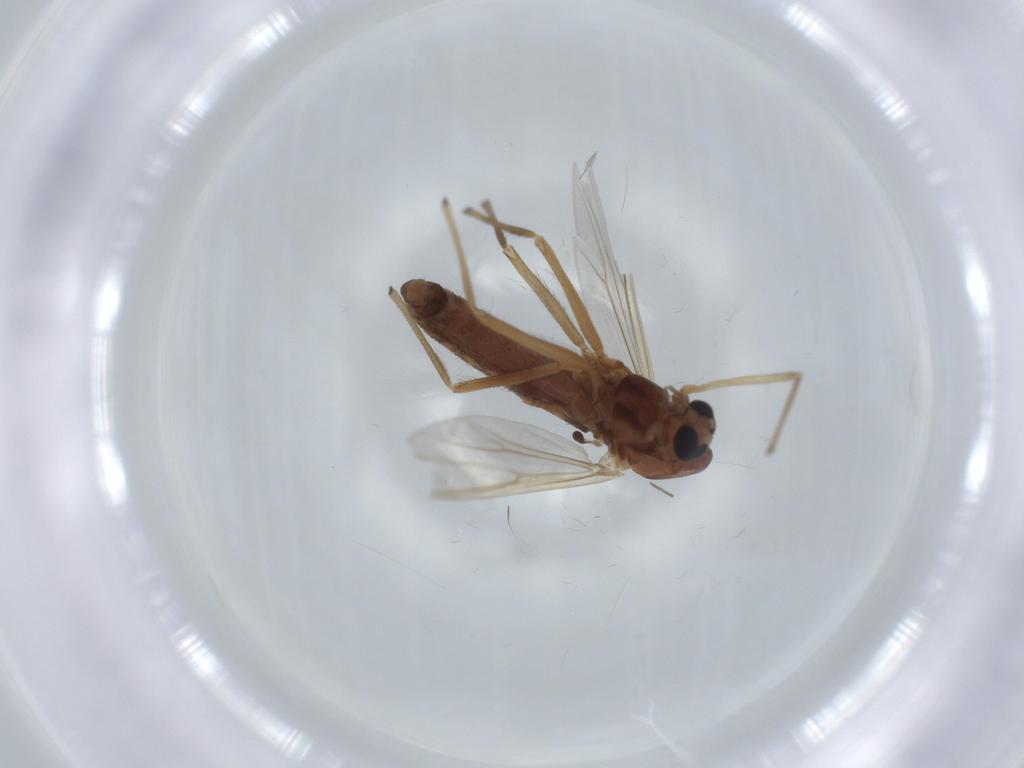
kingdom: Animalia
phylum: Arthropoda
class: Insecta
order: Diptera
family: Chironomidae
